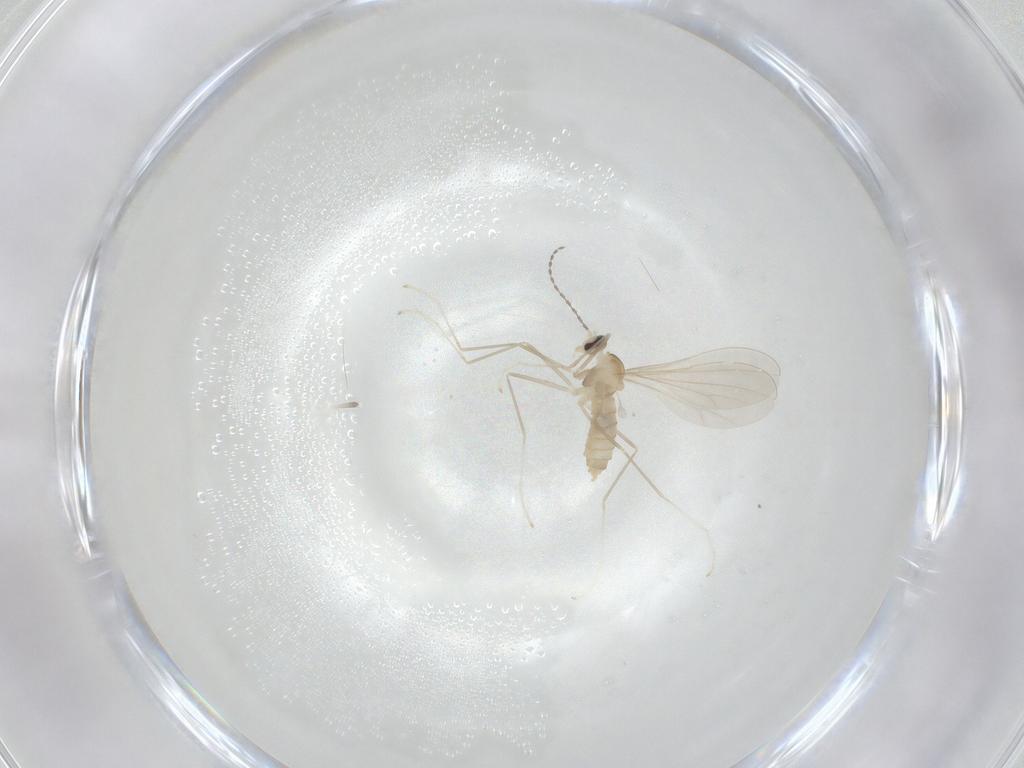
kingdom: Animalia
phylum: Arthropoda
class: Insecta
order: Diptera
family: Cecidomyiidae
